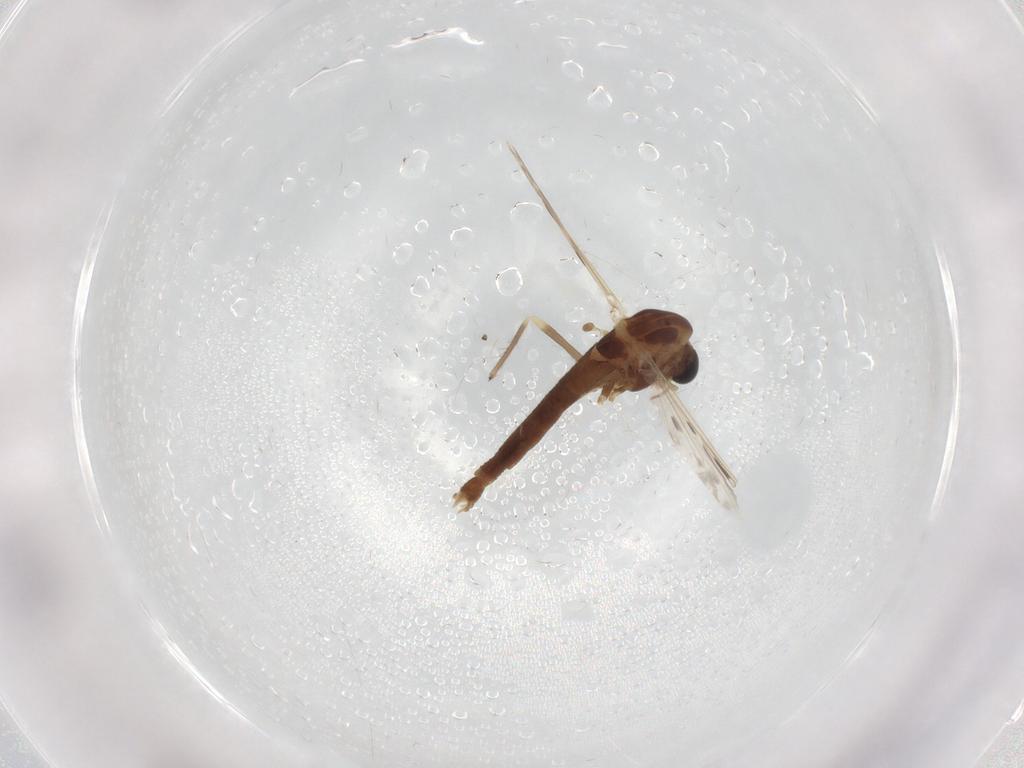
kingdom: Animalia
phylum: Arthropoda
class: Insecta
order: Diptera
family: Chironomidae
